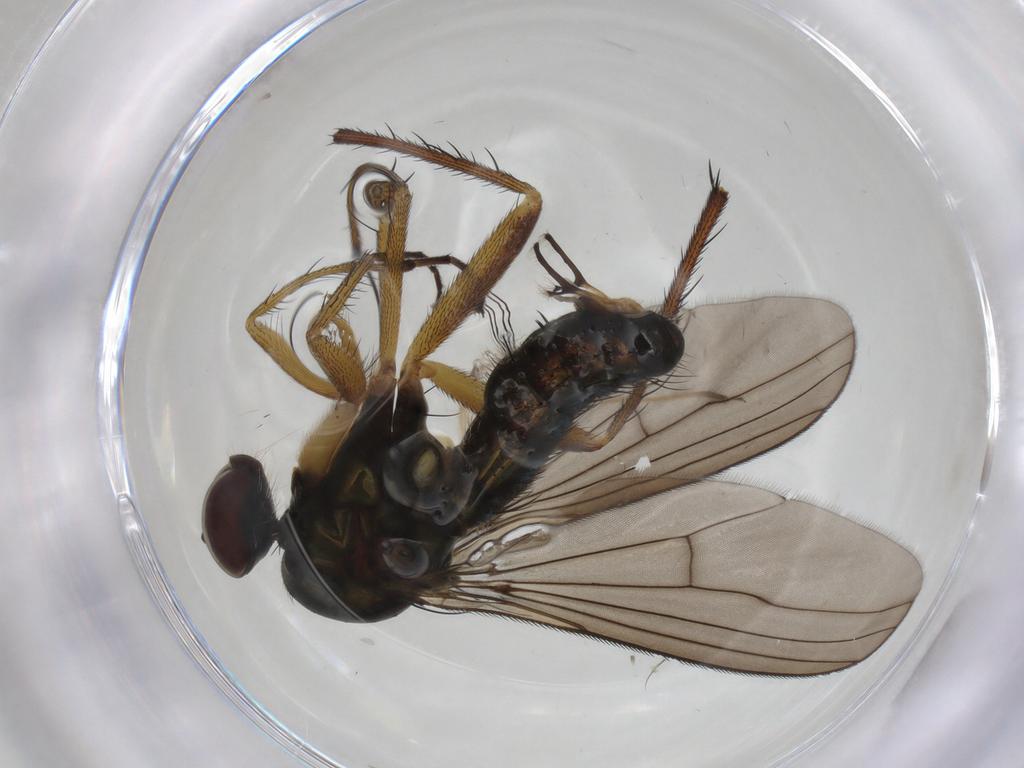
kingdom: Animalia
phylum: Arthropoda
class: Insecta
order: Diptera
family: Dolichopodidae
